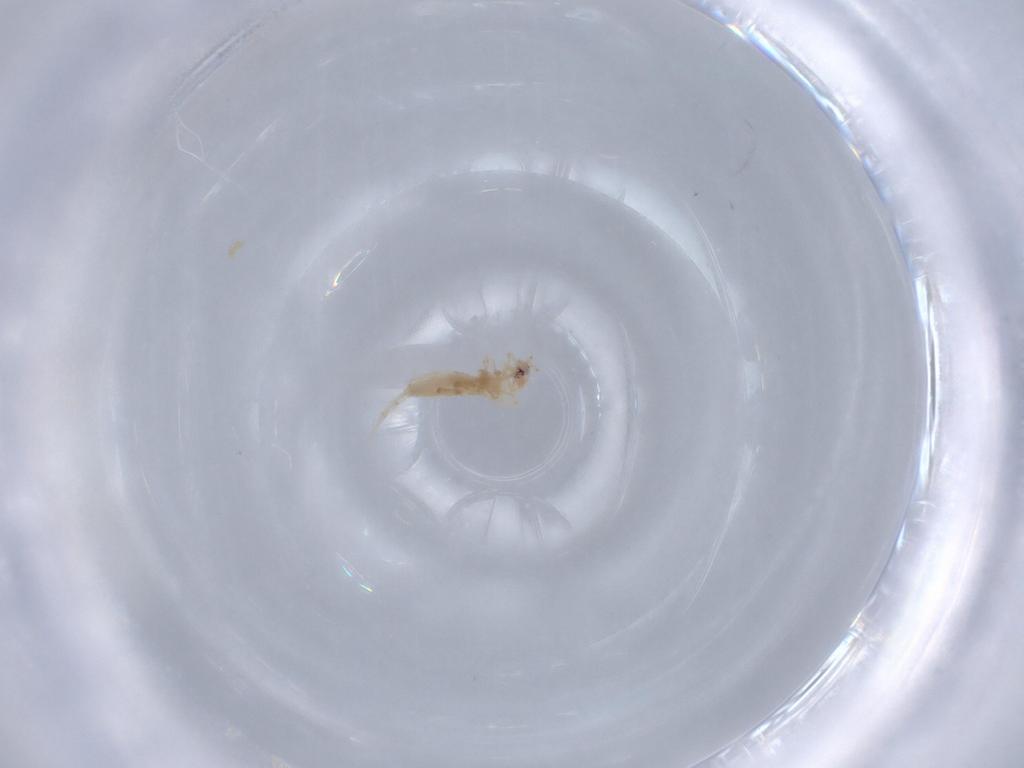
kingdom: Animalia
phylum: Arthropoda
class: Collembola
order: Entomobryomorpha
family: Entomobryidae
